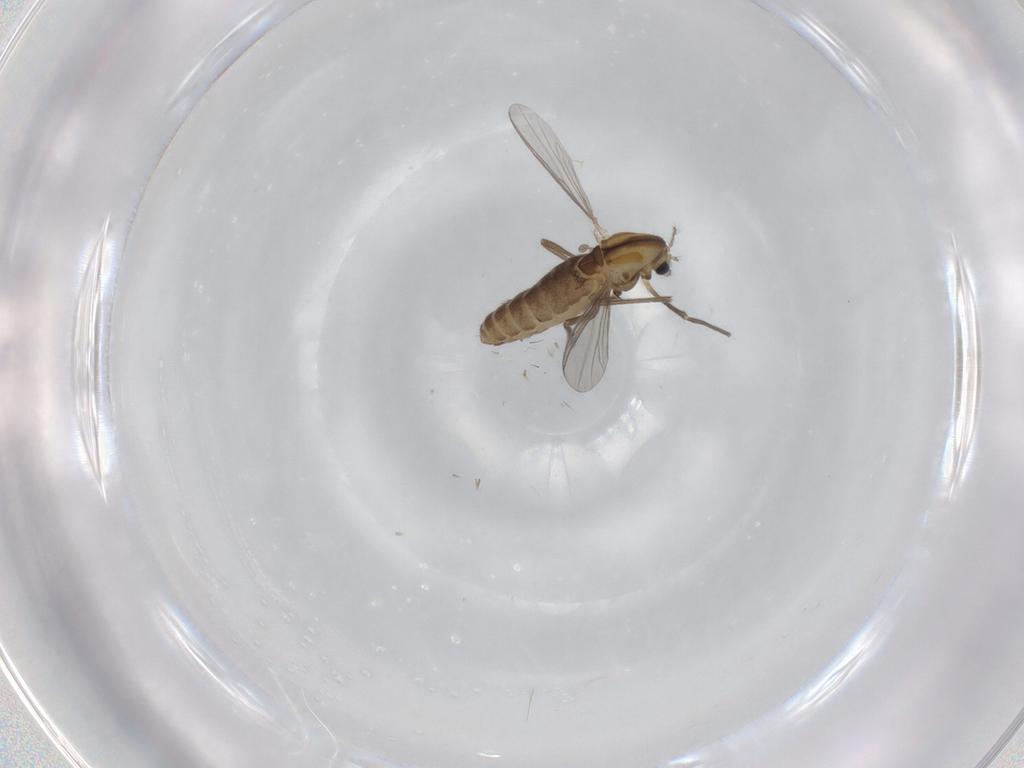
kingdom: Animalia
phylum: Arthropoda
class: Insecta
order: Diptera
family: Chironomidae
